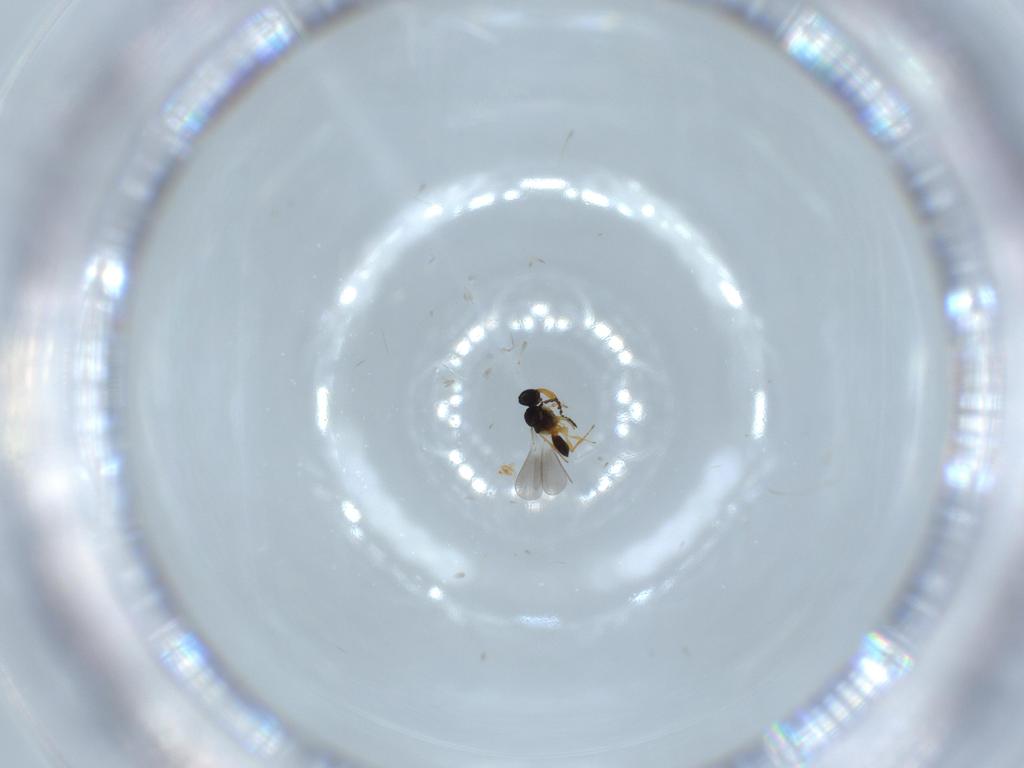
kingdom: Animalia
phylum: Arthropoda
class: Insecta
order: Hymenoptera
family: Platygastridae
